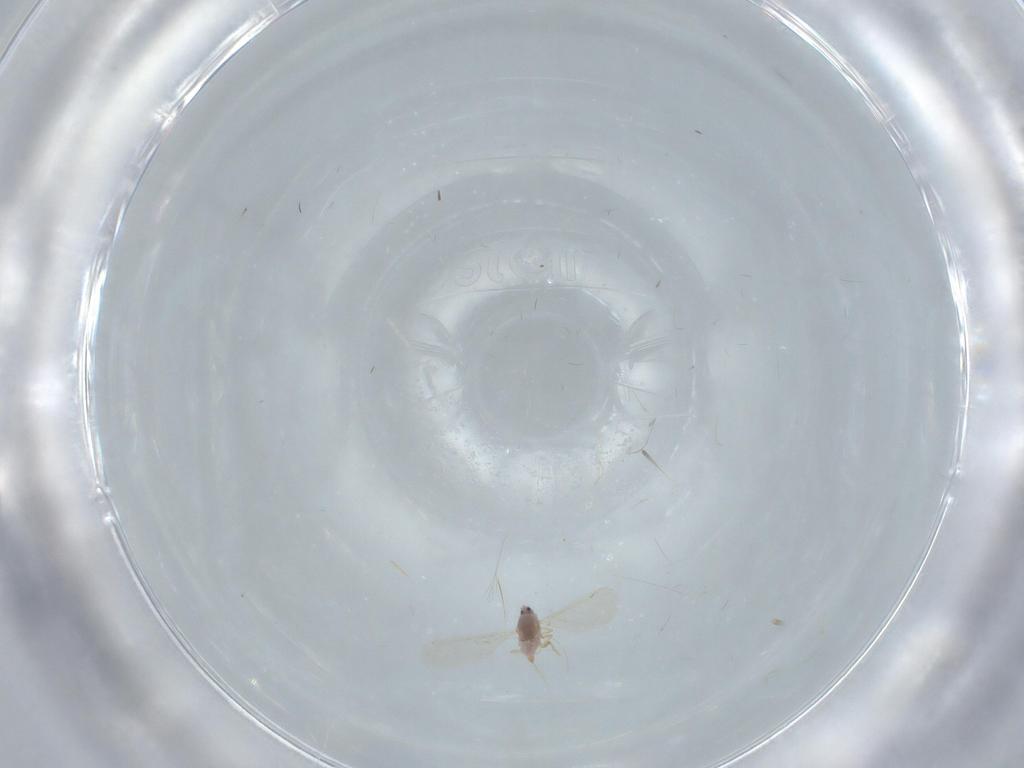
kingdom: Animalia
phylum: Arthropoda
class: Insecta
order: Hemiptera
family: Diaspididae
